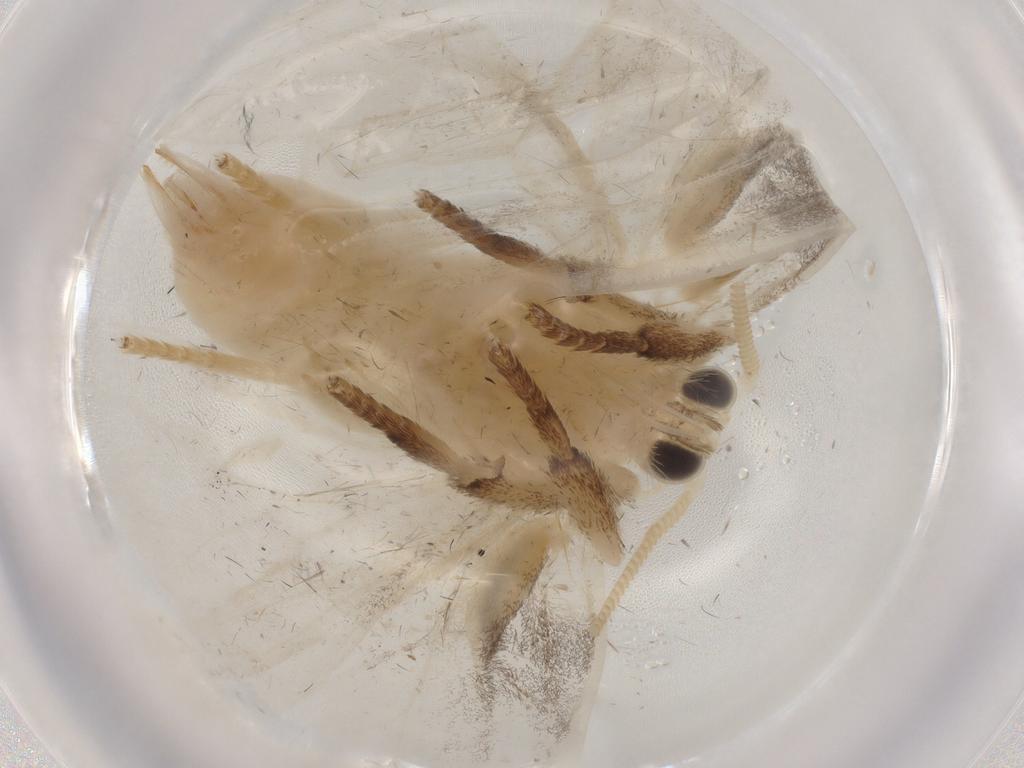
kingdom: Animalia
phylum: Arthropoda
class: Insecta
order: Lepidoptera
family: Erebidae
